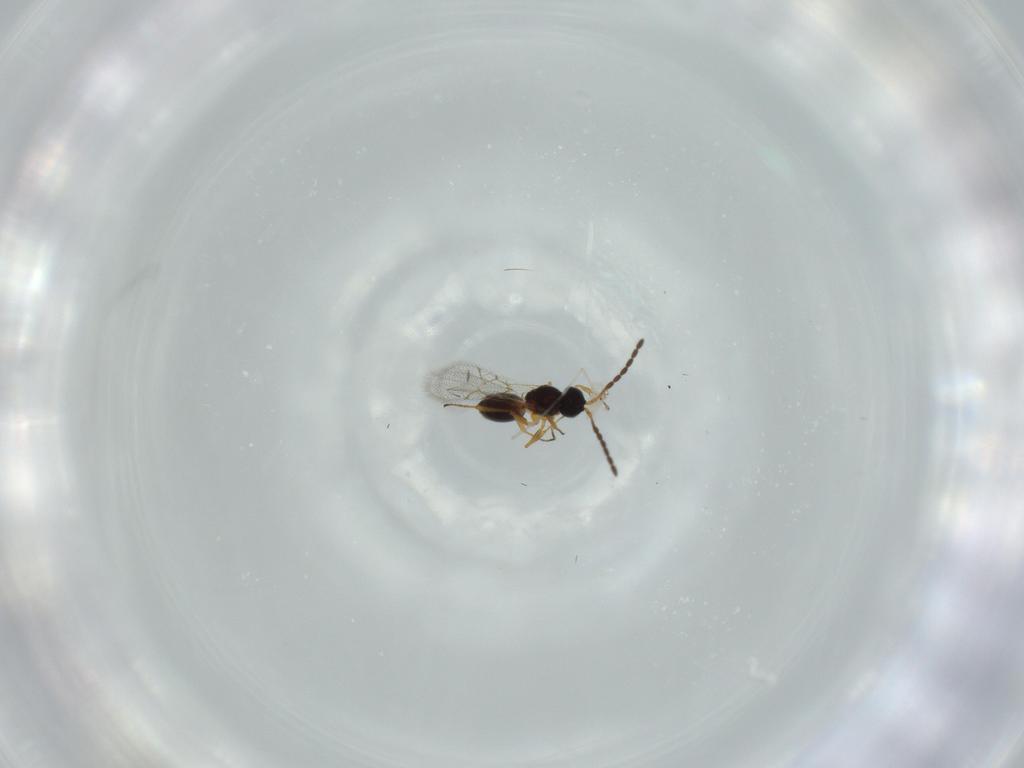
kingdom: Animalia
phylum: Arthropoda
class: Insecta
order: Hymenoptera
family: Figitidae
